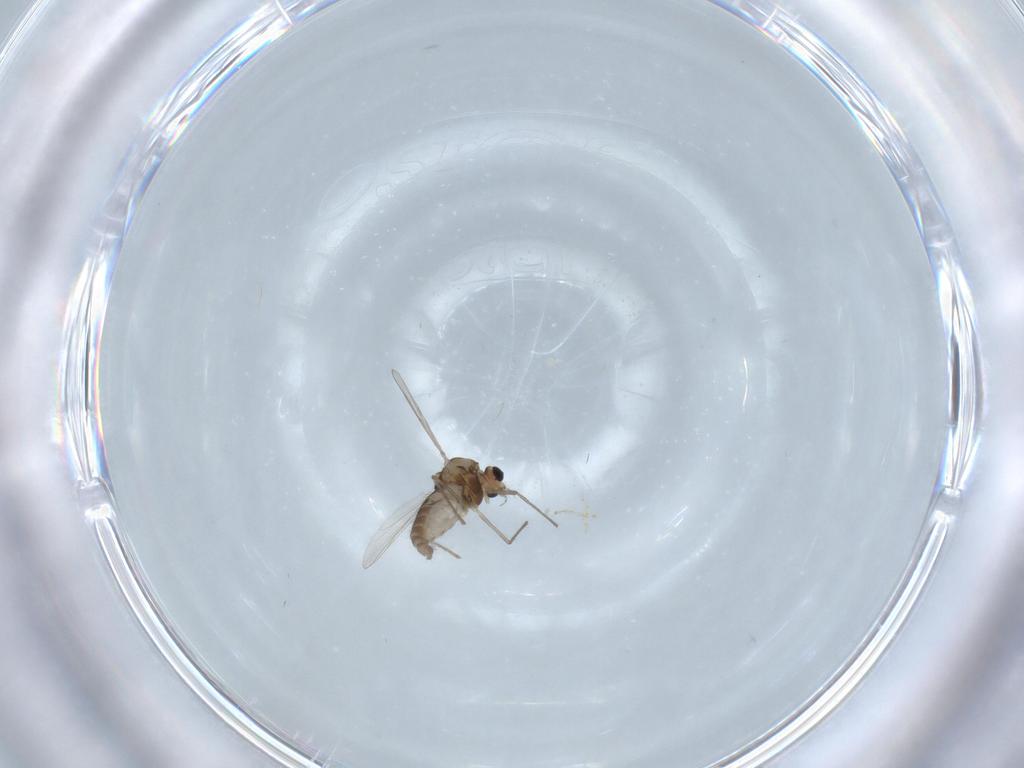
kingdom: Animalia
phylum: Arthropoda
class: Insecta
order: Diptera
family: Chironomidae
